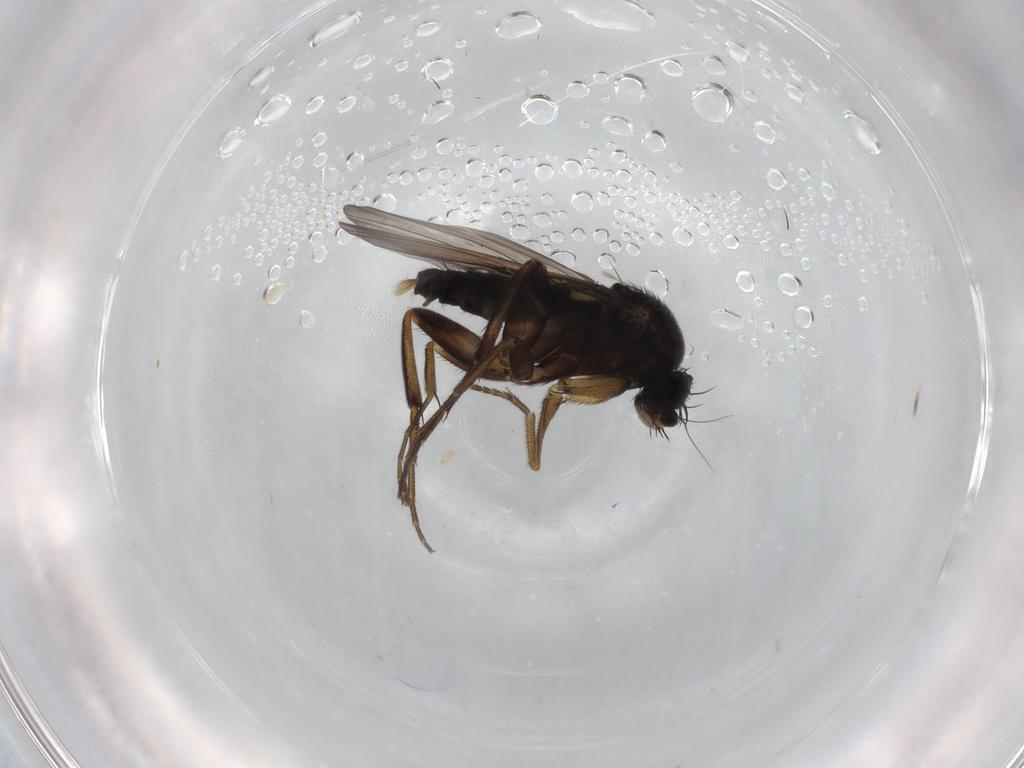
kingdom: Animalia
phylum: Arthropoda
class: Insecta
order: Diptera
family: Phoridae
